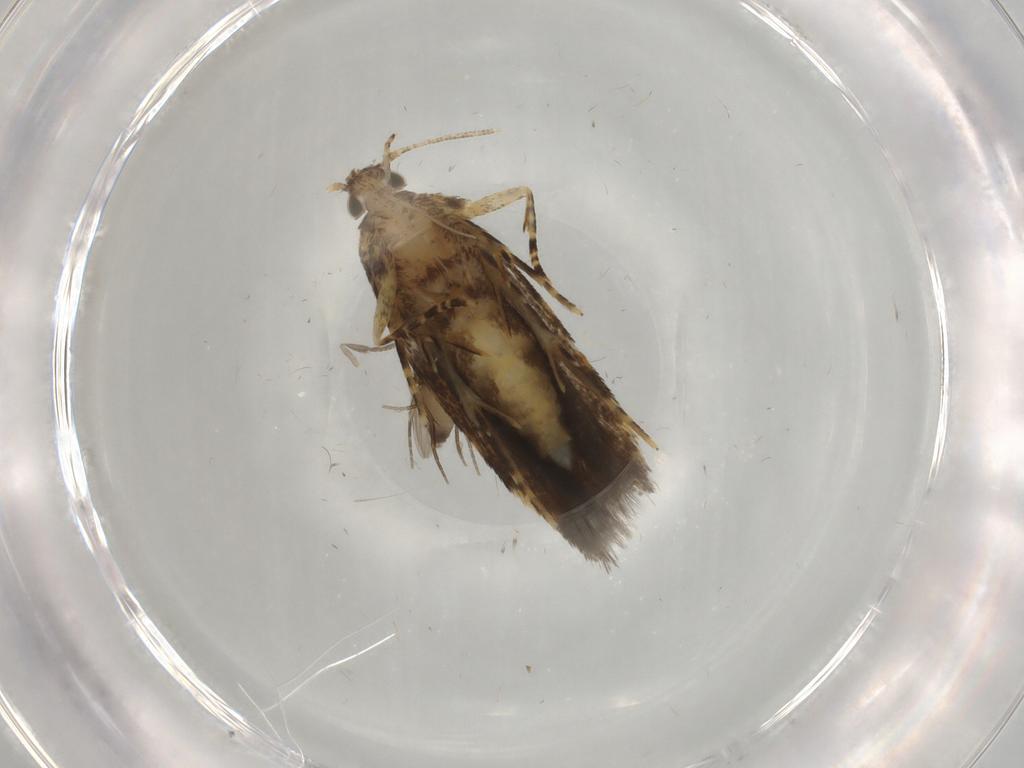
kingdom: Animalia
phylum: Arthropoda
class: Insecta
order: Lepidoptera
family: Oecophoridae
